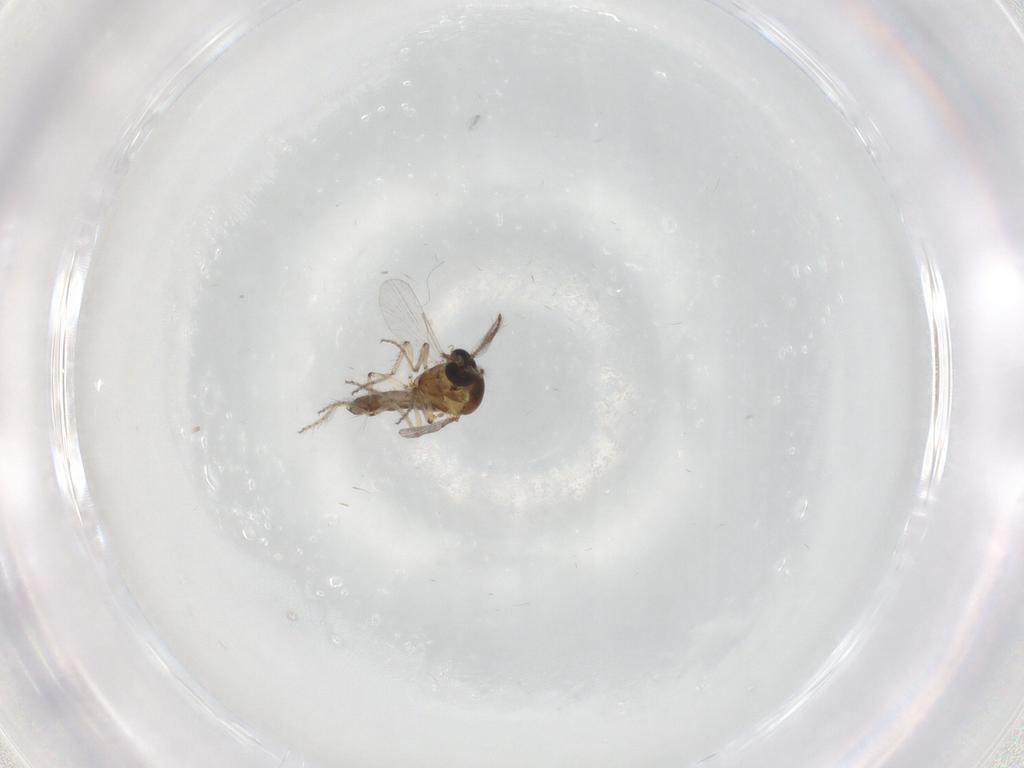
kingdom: Animalia
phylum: Arthropoda
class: Insecta
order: Diptera
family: Ceratopogonidae
